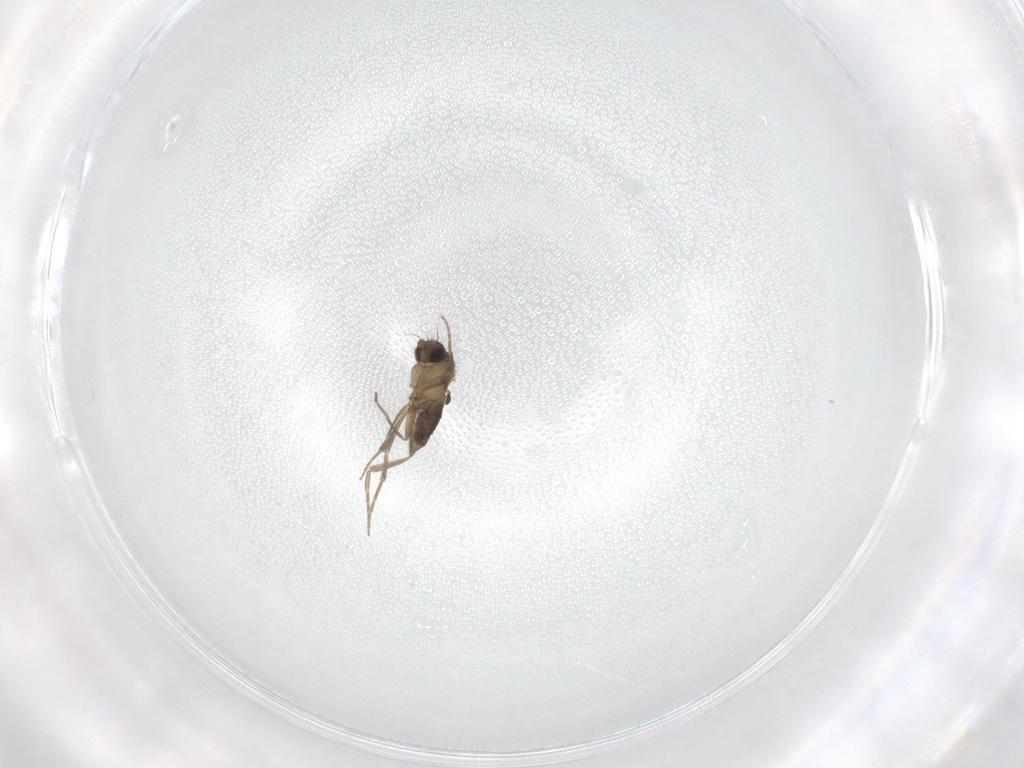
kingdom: Animalia
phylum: Arthropoda
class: Insecta
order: Diptera
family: Phoridae
